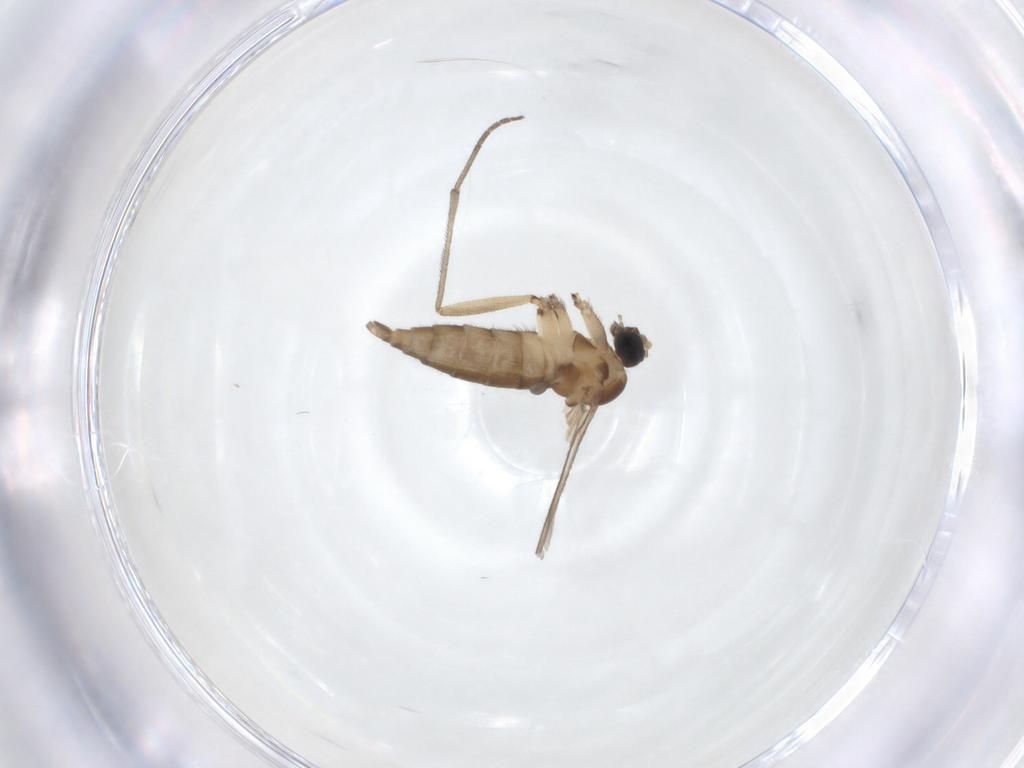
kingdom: Animalia
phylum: Arthropoda
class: Insecta
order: Diptera
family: Sciaridae
